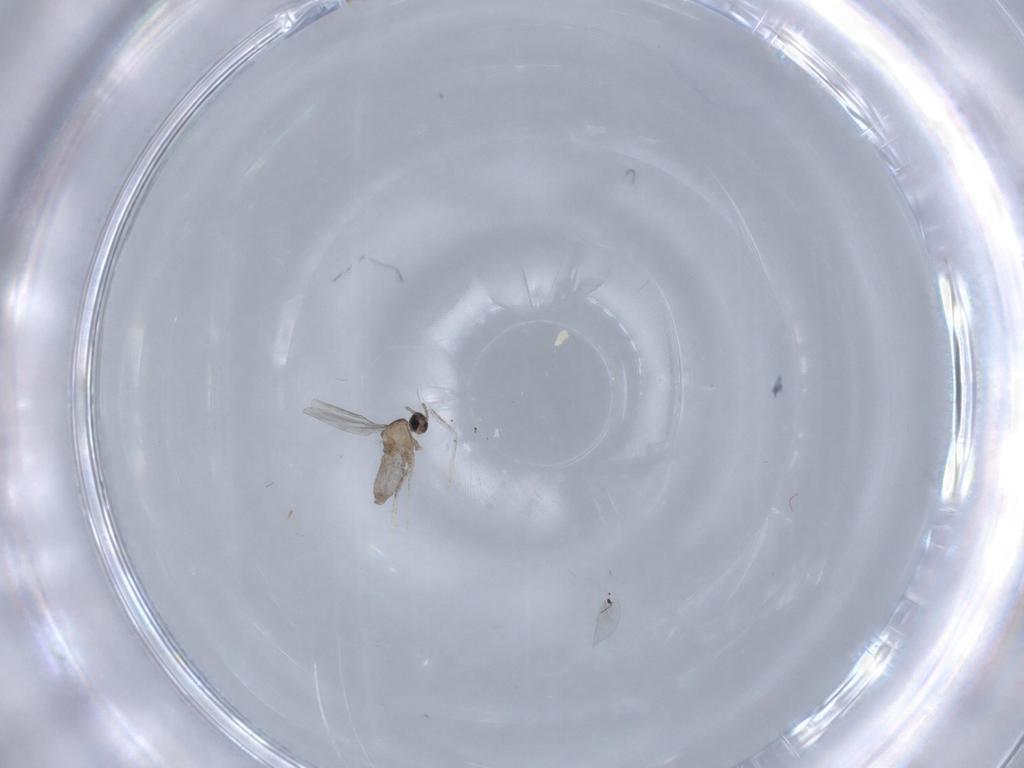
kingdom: Animalia
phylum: Arthropoda
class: Insecta
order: Diptera
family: Cecidomyiidae
